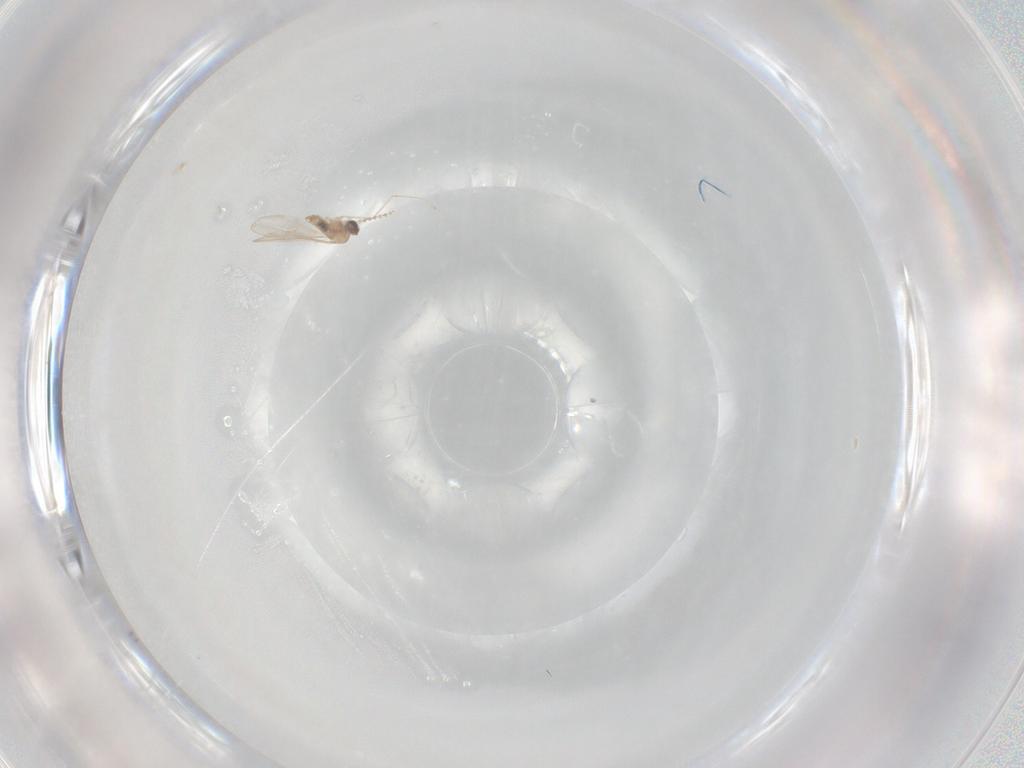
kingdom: Animalia
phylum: Arthropoda
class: Insecta
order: Diptera
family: Cecidomyiidae
